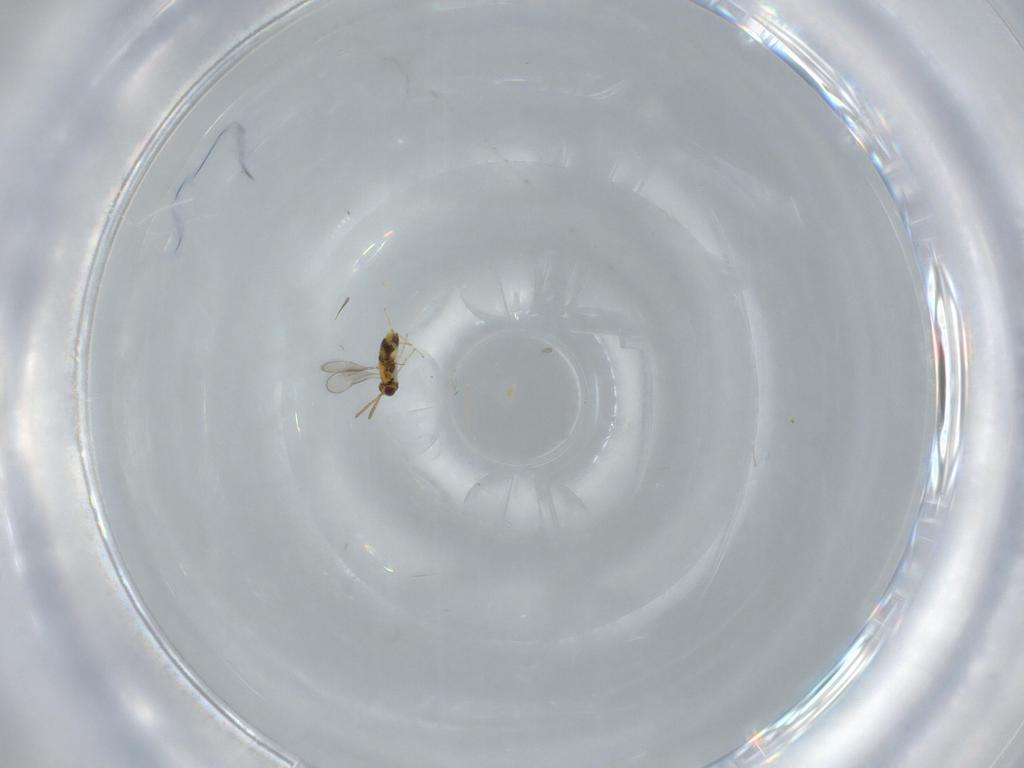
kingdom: Animalia
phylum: Arthropoda
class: Insecta
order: Hymenoptera
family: Aphelinidae
